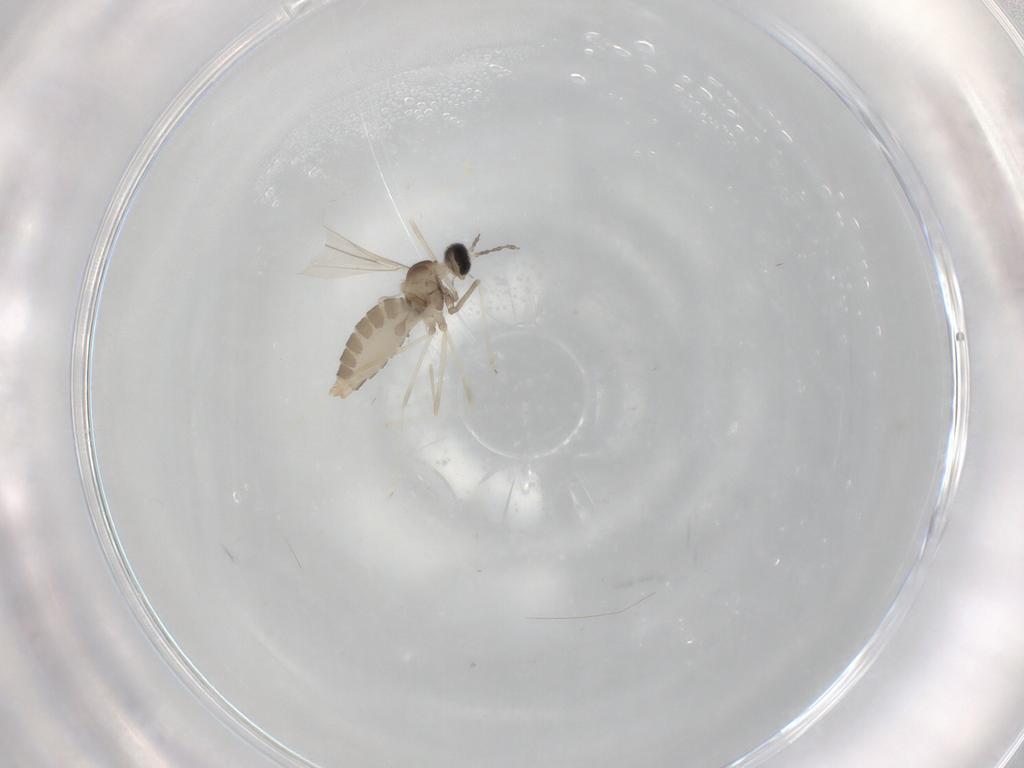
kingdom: Animalia
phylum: Arthropoda
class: Insecta
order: Diptera
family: Cecidomyiidae
